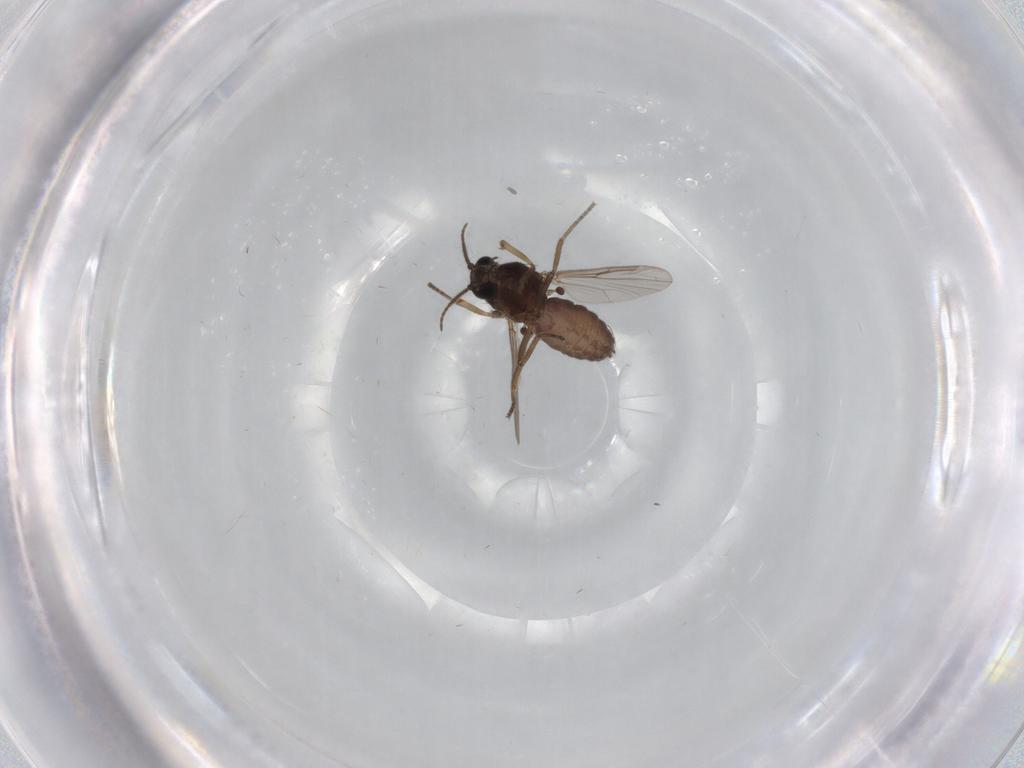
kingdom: Animalia
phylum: Arthropoda
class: Insecta
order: Diptera
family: Ceratopogonidae
